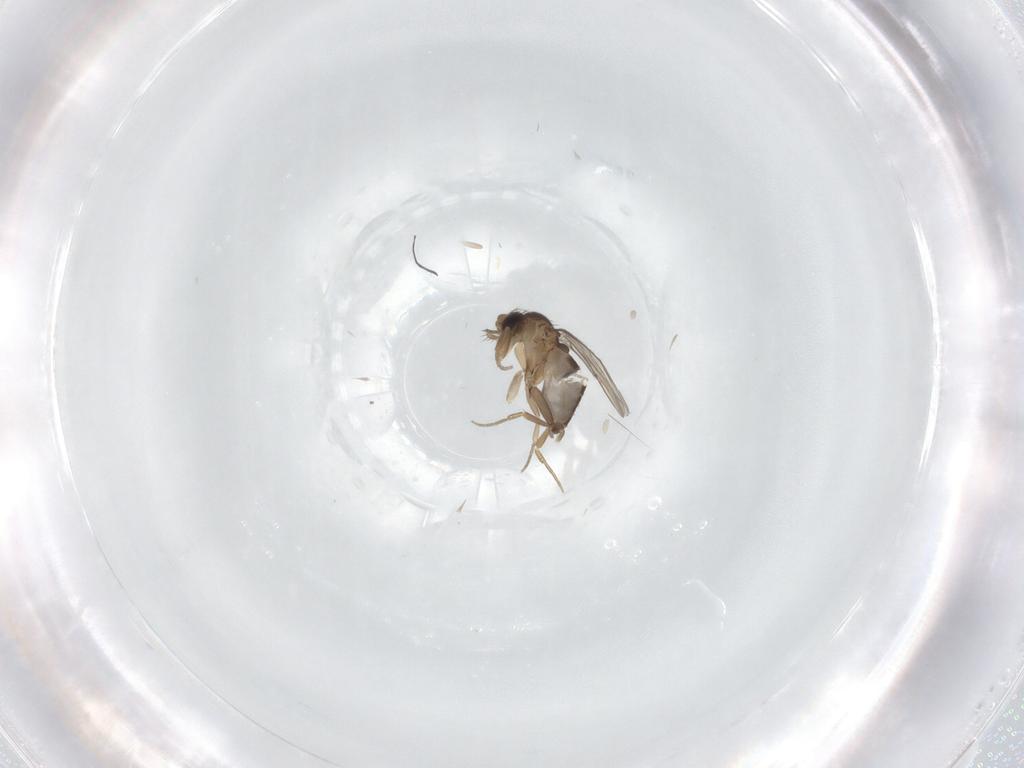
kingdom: Animalia
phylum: Arthropoda
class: Insecta
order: Diptera
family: Phoridae
